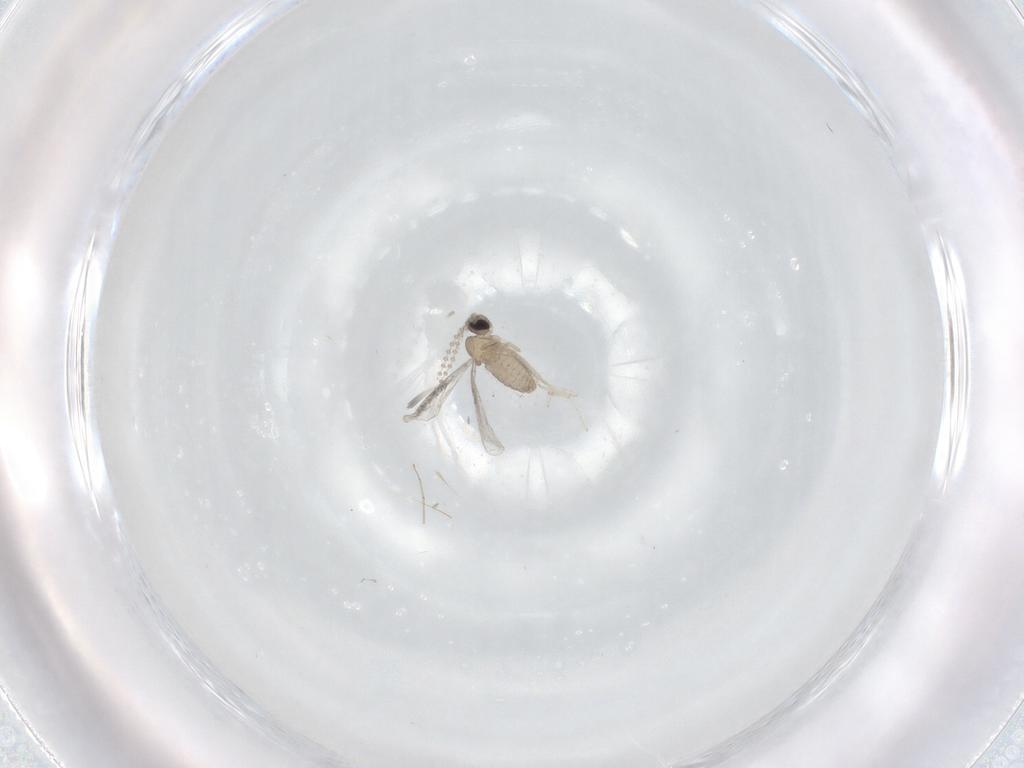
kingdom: Animalia
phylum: Arthropoda
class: Insecta
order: Diptera
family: Cecidomyiidae
